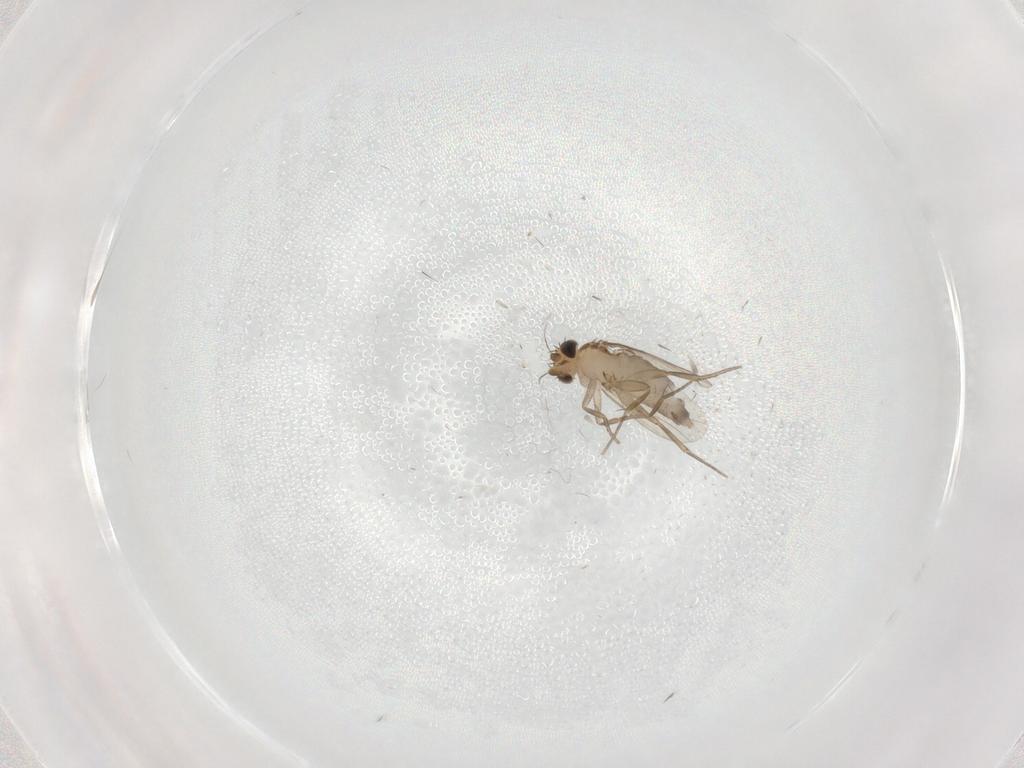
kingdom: Animalia
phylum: Arthropoda
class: Insecta
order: Diptera
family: Phoridae
